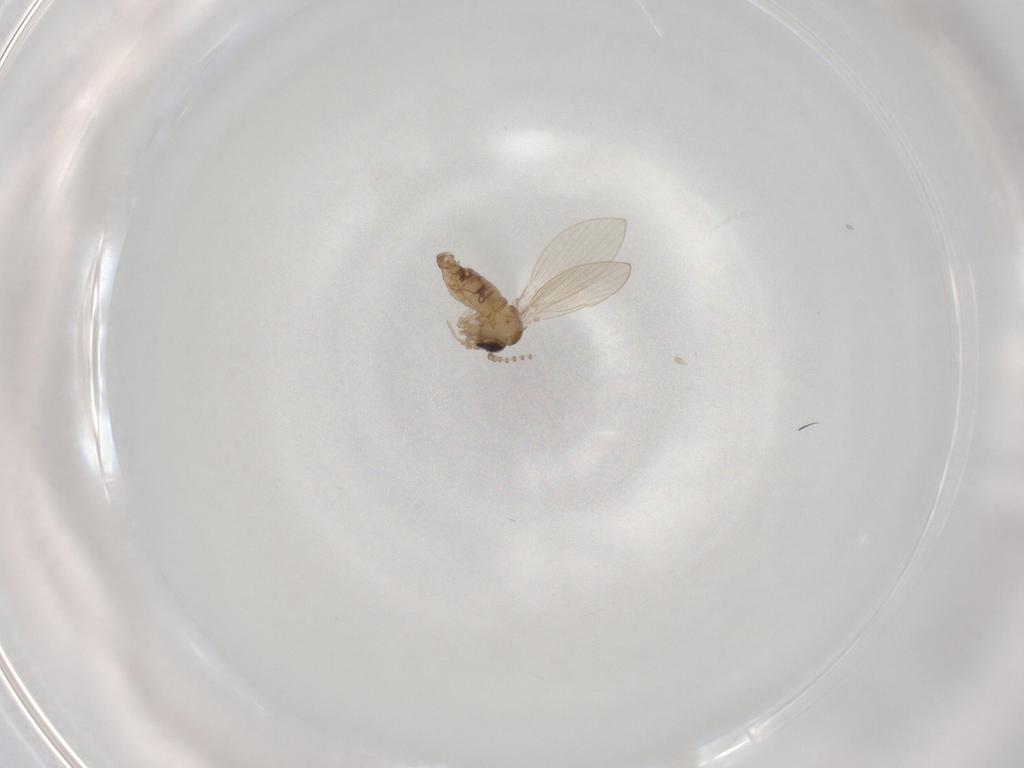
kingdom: Animalia
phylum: Arthropoda
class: Insecta
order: Diptera
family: Psychodidae
